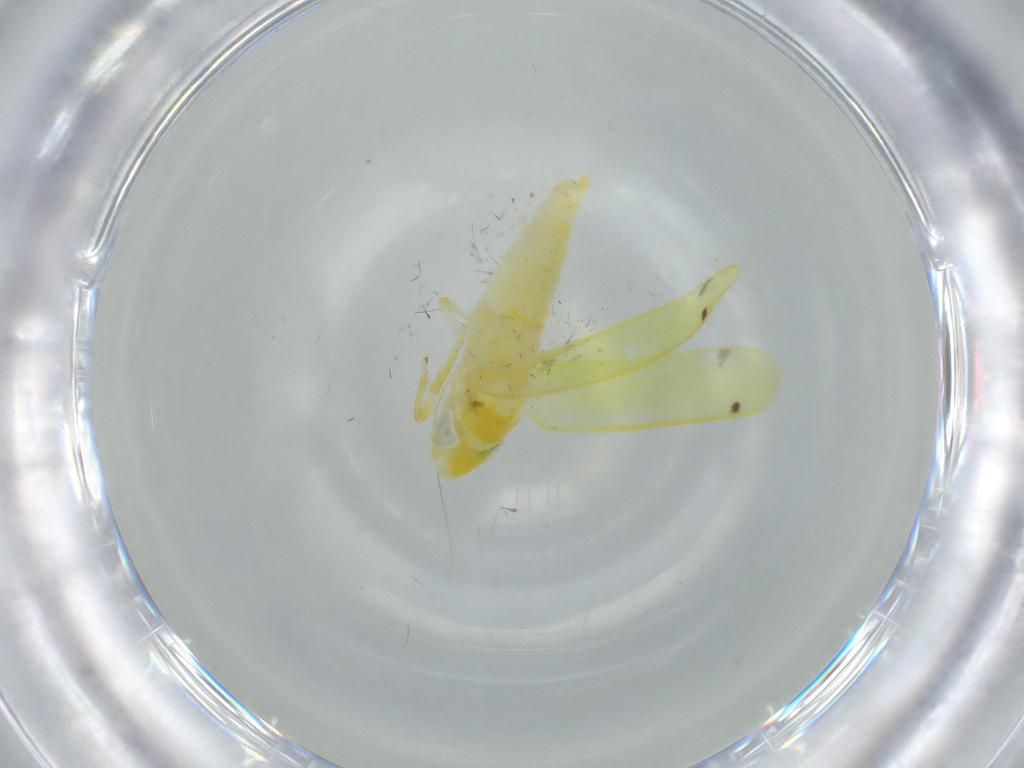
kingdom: Animalia
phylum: Arthropoda
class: Insecta
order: Hemiptera
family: Cicadellidae
